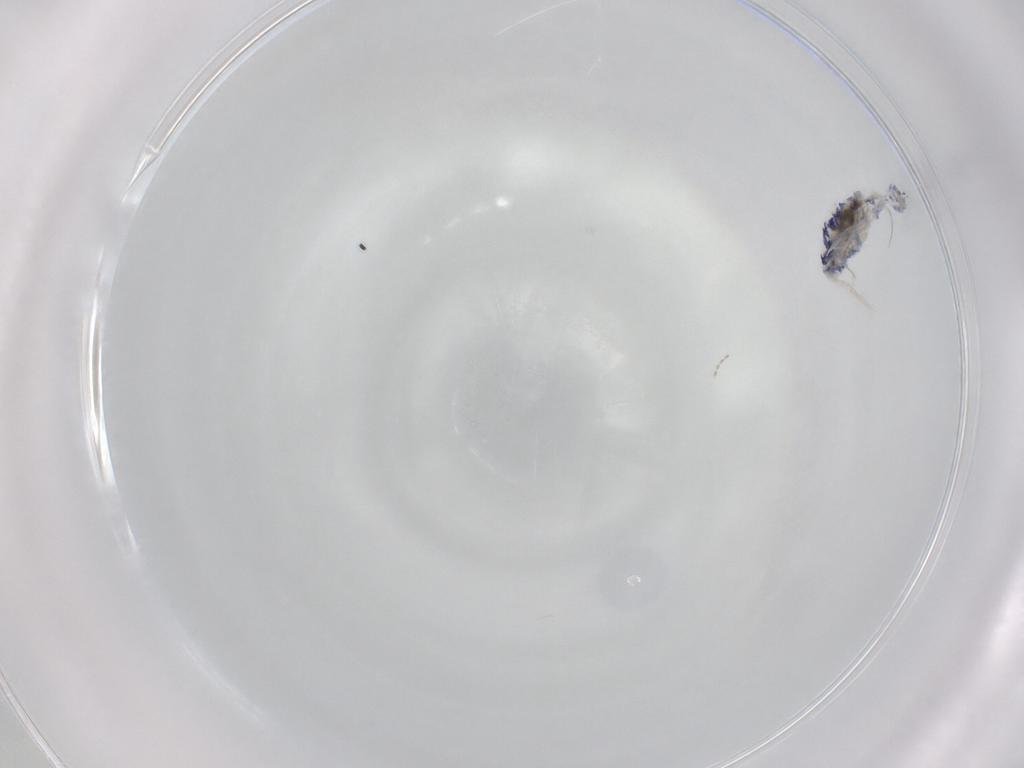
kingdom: Animalia
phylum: Arthropoda
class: Collembola
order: Entomobryomorpha
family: Entomobryidae
